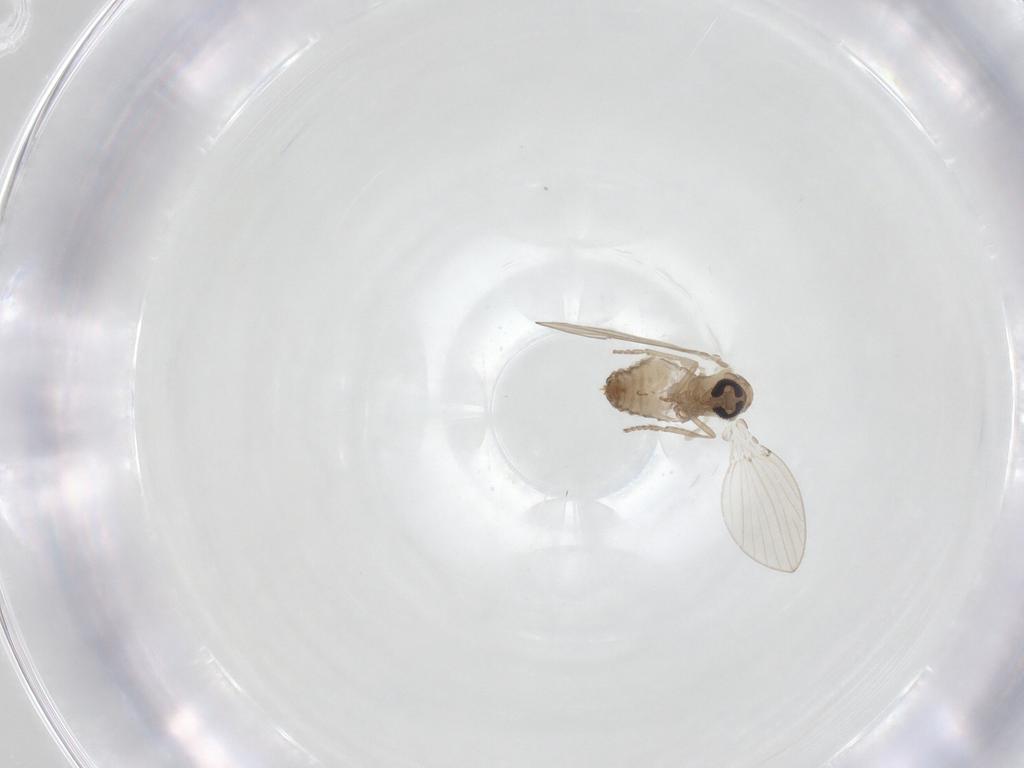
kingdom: Animalia
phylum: Arthropoda
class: Insecta
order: Diptera
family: Psychodidae
